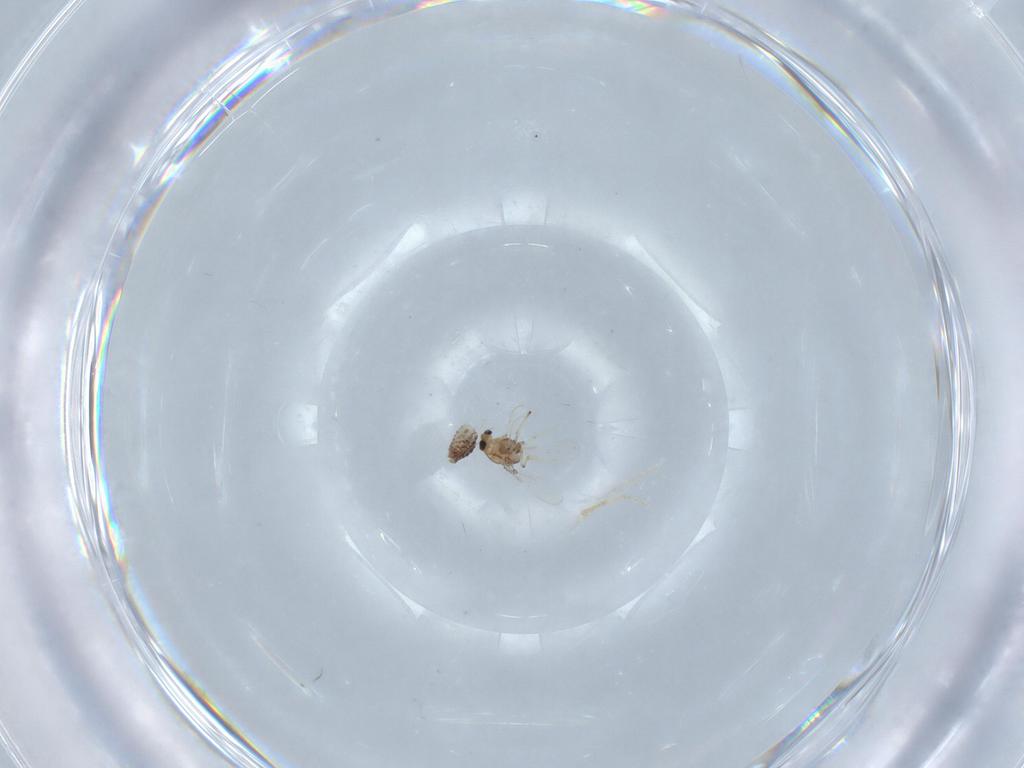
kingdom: Animalia
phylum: Arthropoda
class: Insecta
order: Diptera
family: Chironomidae
